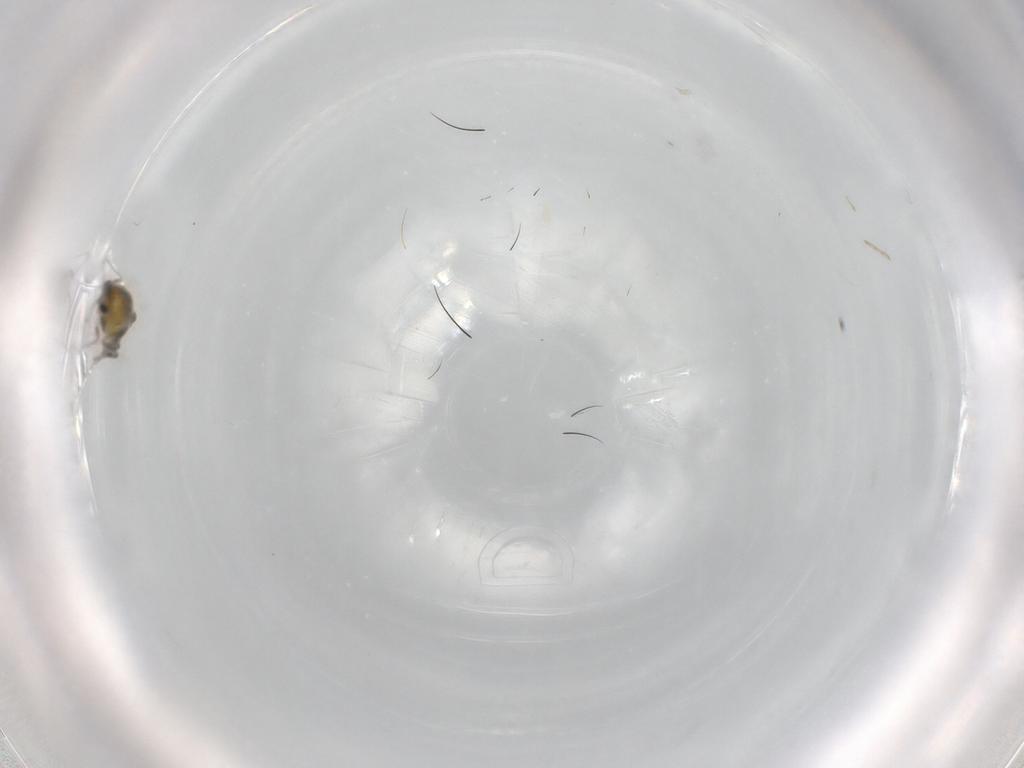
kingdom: Animalia
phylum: Arthropoda
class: Insecta
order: Diptera
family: Chironomidae
